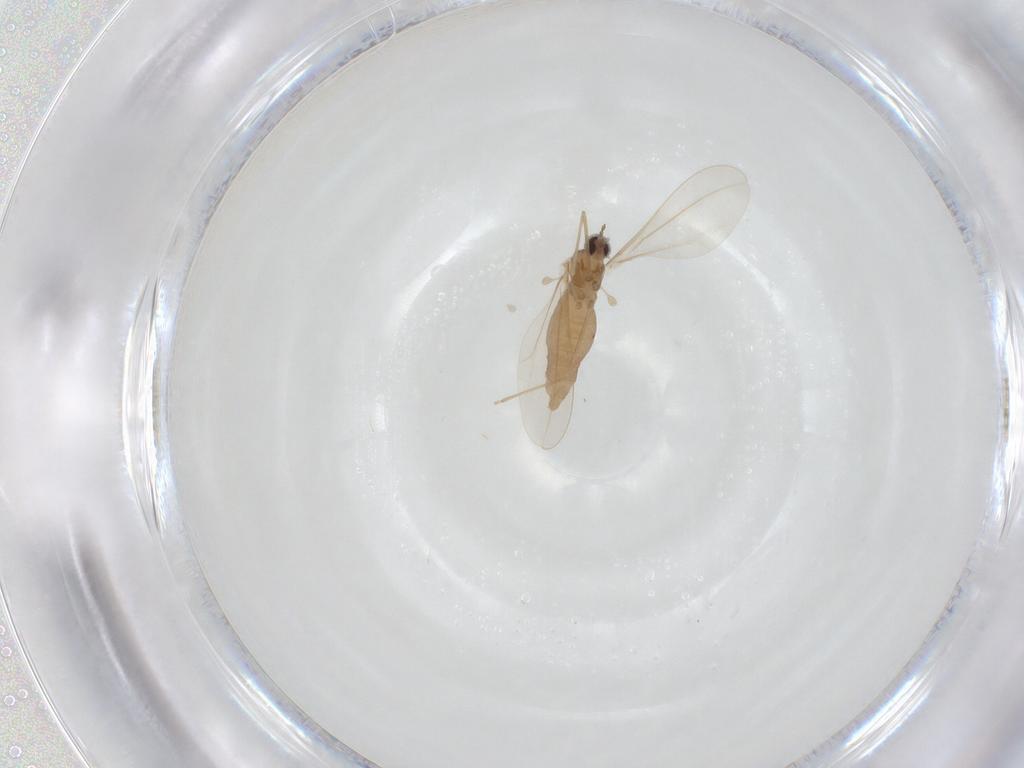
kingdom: Animalia
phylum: Arthropoda
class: Insecta
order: Diptera
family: Cecidomyiidae
